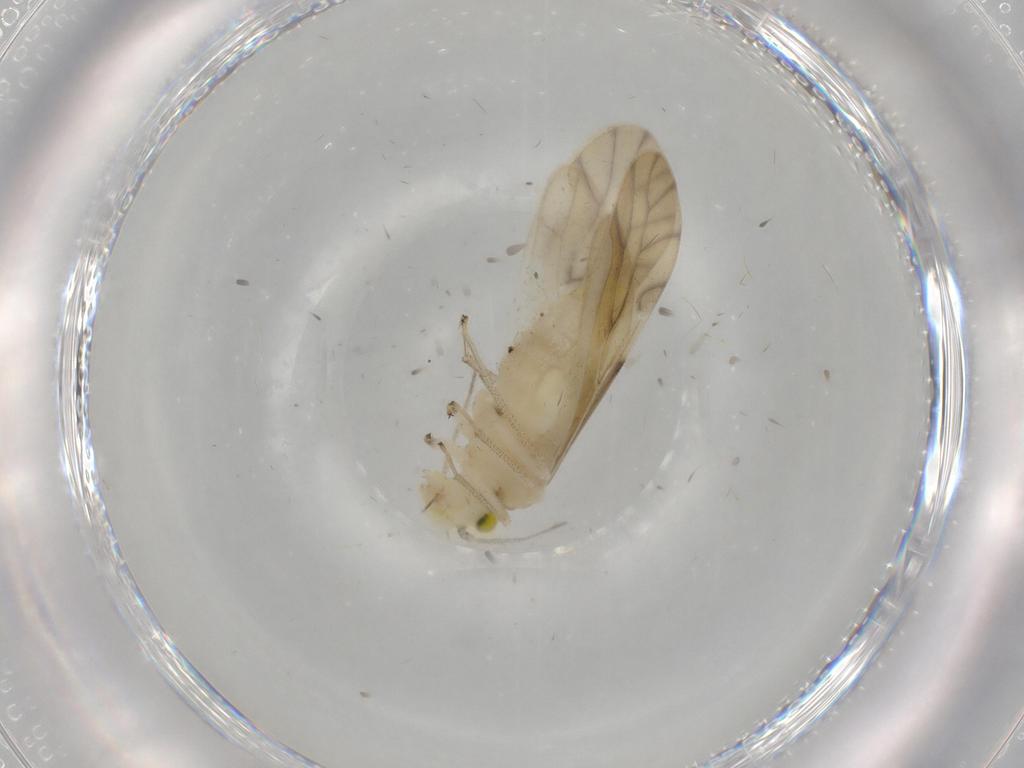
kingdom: Animalia
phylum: Arthropoda
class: Insecta
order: Psocodea
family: Caeciliusidae
